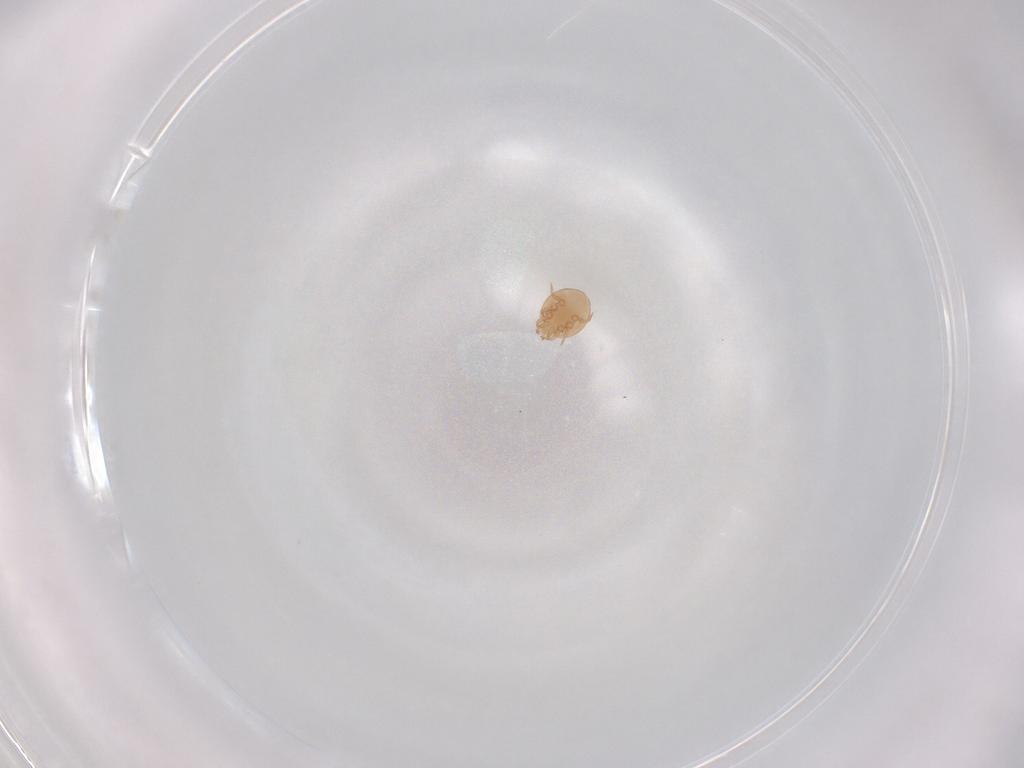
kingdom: Animalia
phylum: Arthropoda
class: Arachnida
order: Mesostigmata
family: Trematuridae
